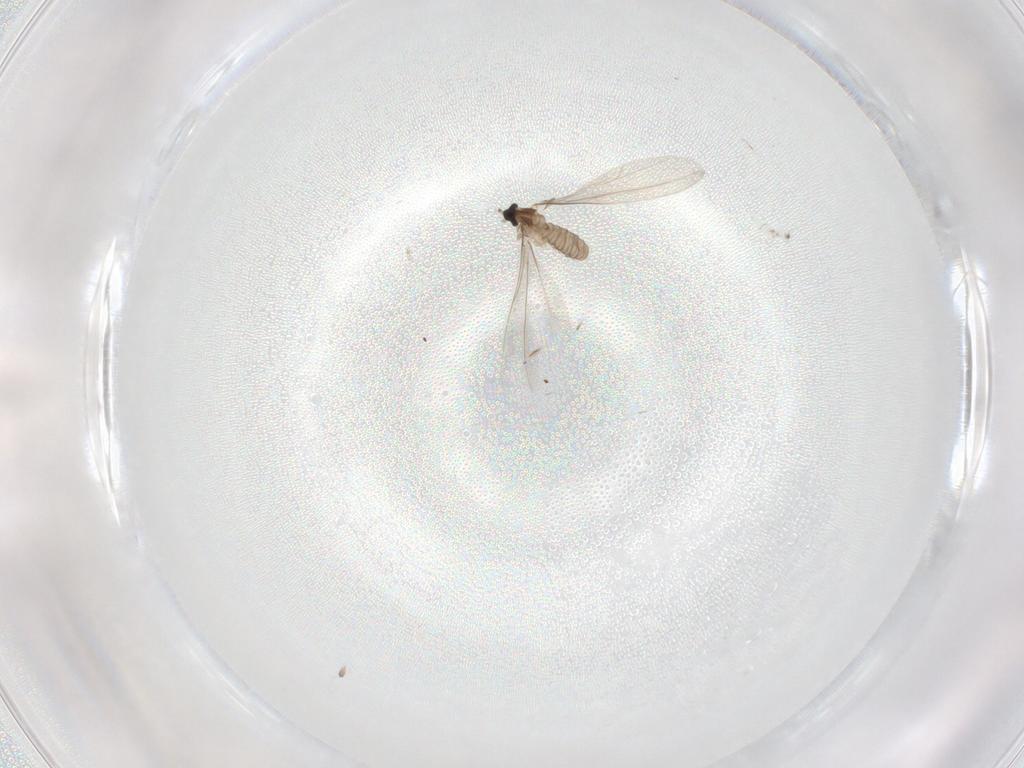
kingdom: Animalia
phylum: Arthropoda
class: Insecta
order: Diptera
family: Cecidomyiidae
